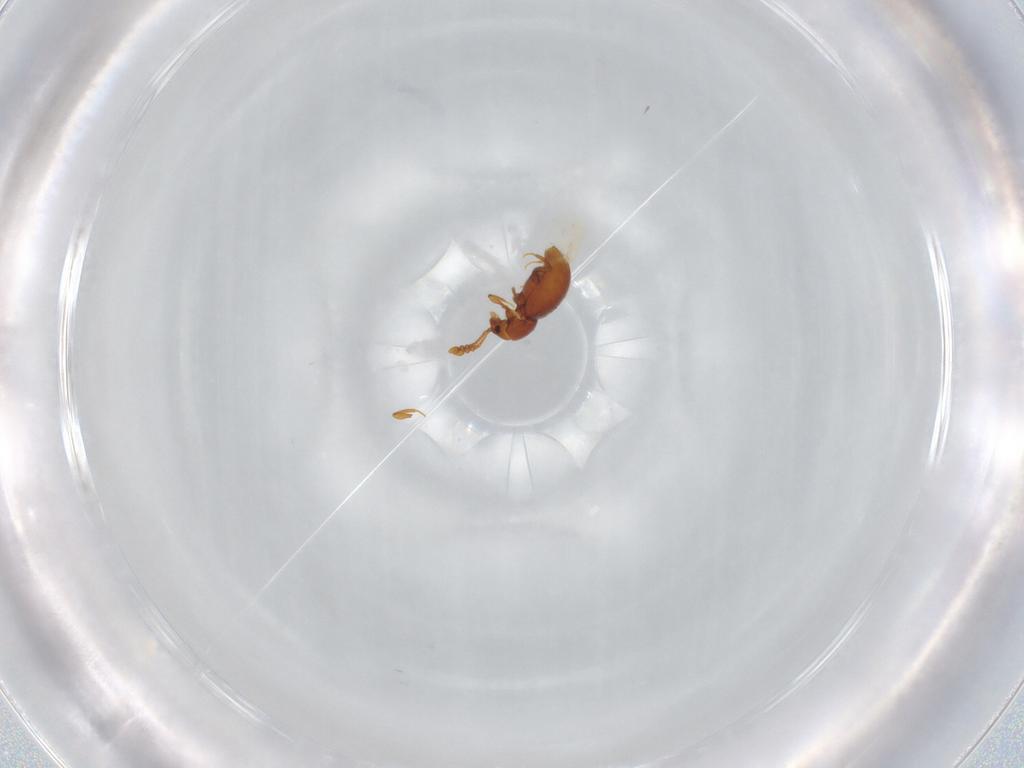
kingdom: Animalia
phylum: Arthropoda
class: Insecta
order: Coleoptera
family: Staphylinidae
